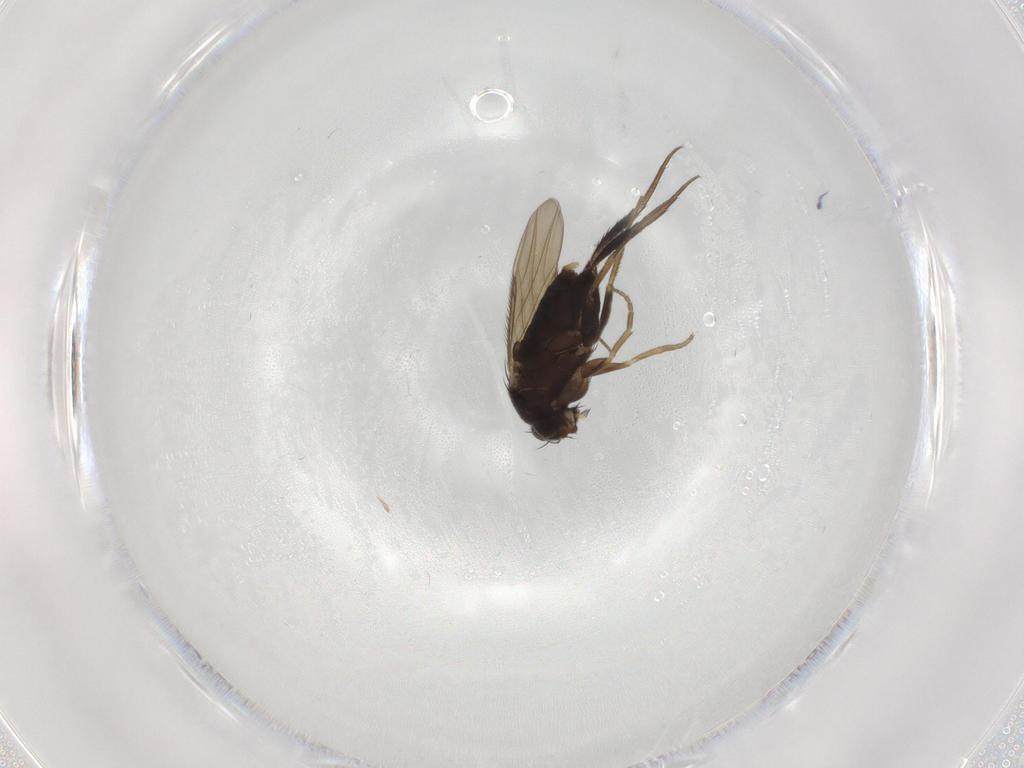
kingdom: Animalia
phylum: Arthropoda
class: Insecta
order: Diptera
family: Phoridae
